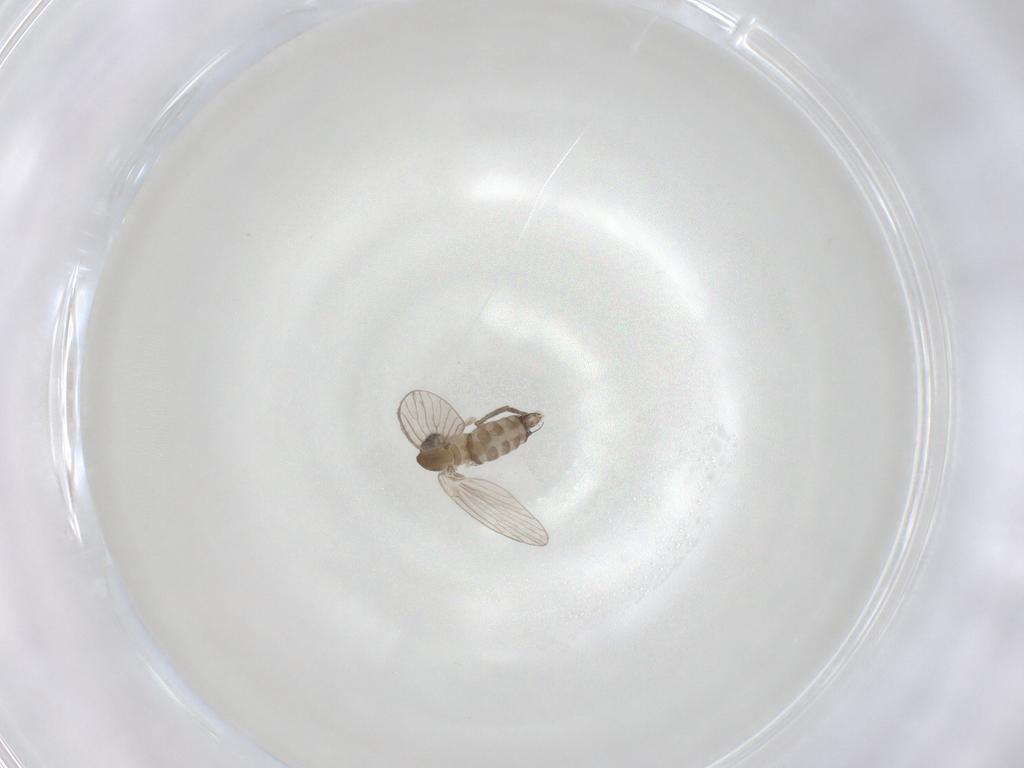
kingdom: Animalia
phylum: Arthropoda
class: Insecta
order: Diptera
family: Psychodidae
